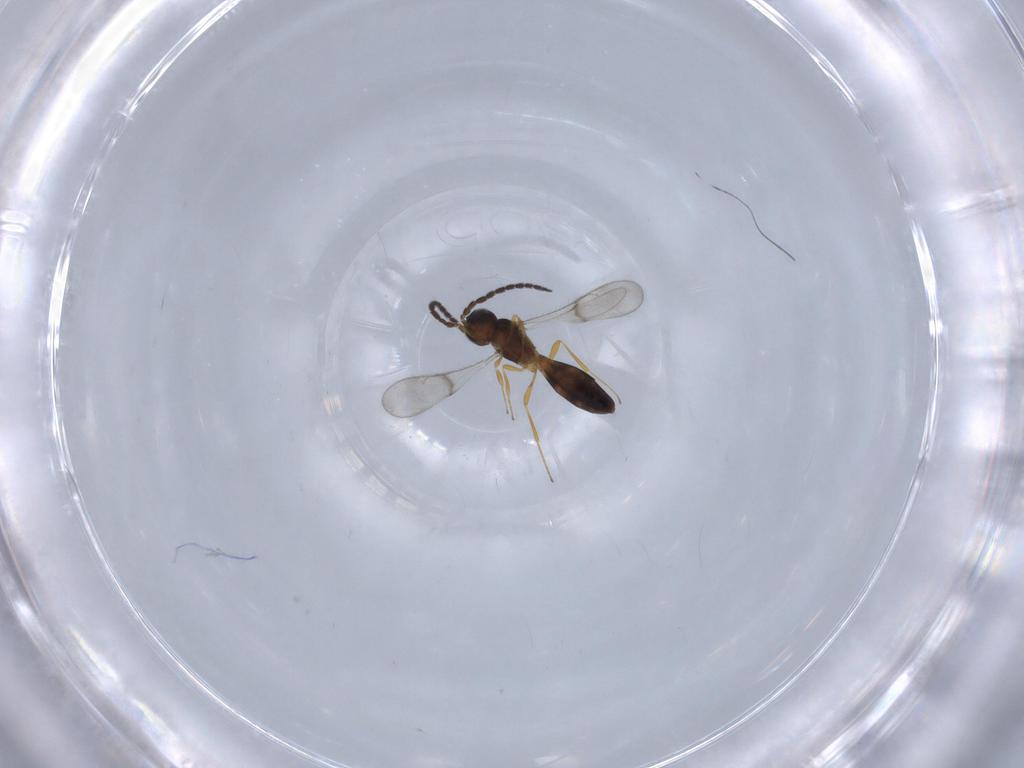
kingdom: Animalia
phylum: Arthropoda
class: Insecta
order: Hymenoptera
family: Scelionidae
